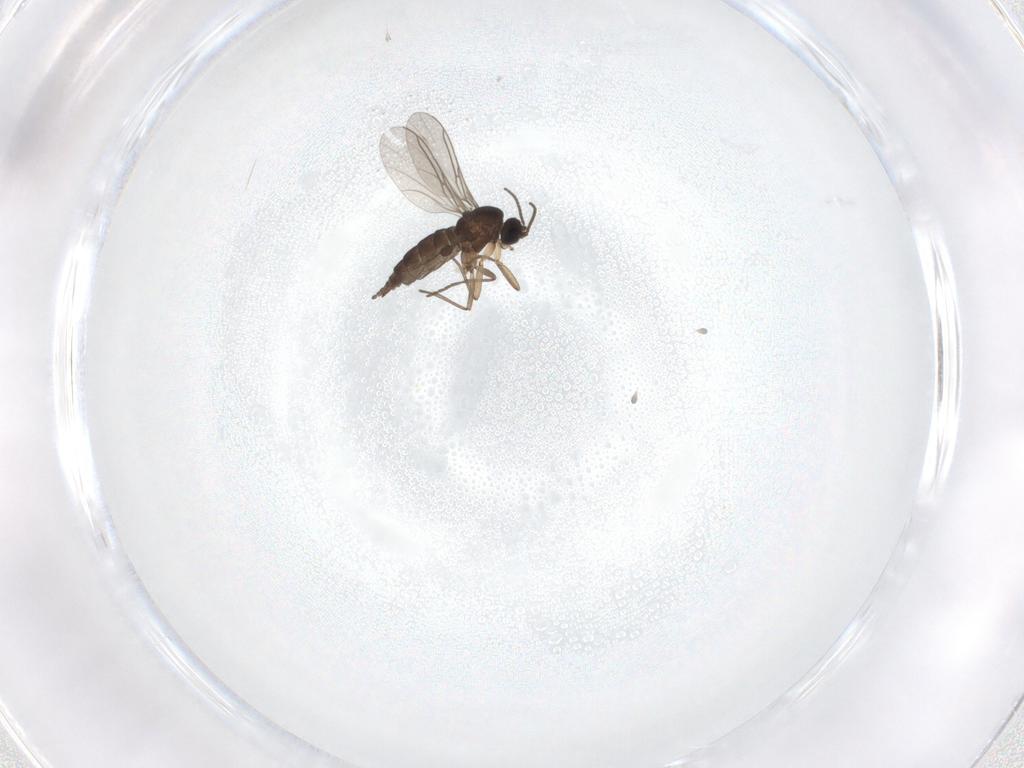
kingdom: Animalia
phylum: Arthropoda
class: Insecta
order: Diptera
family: Sciaridae
